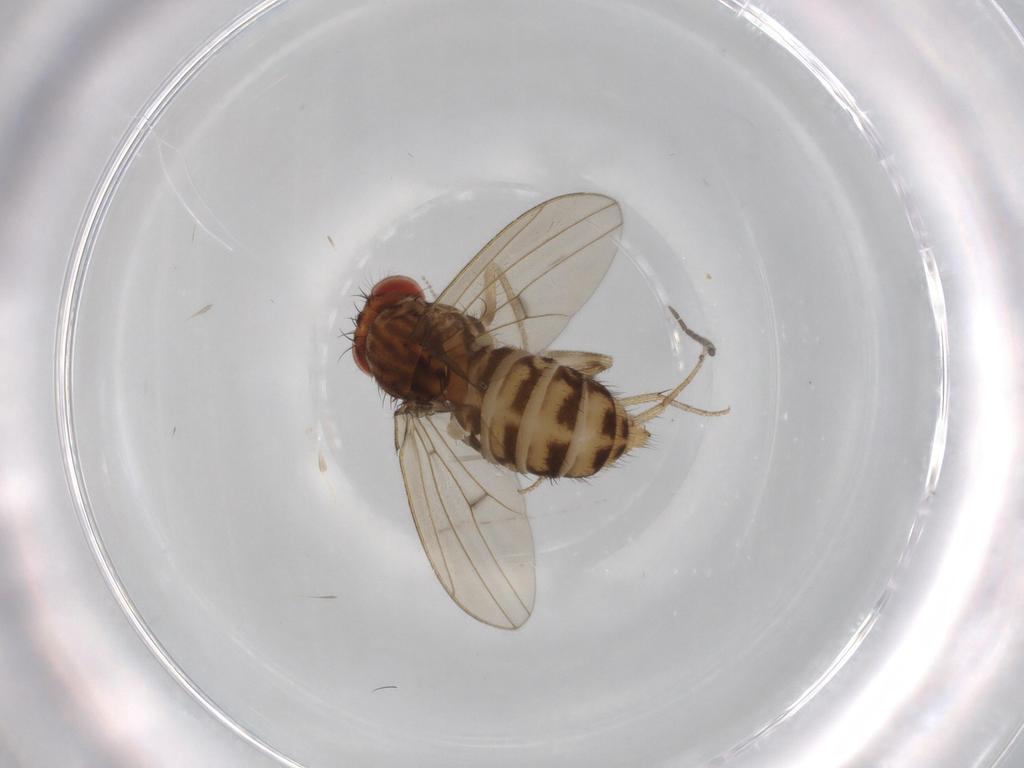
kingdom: Animalia
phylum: Arthropoda
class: Insecta
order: Diptera
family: Drosophilidae
